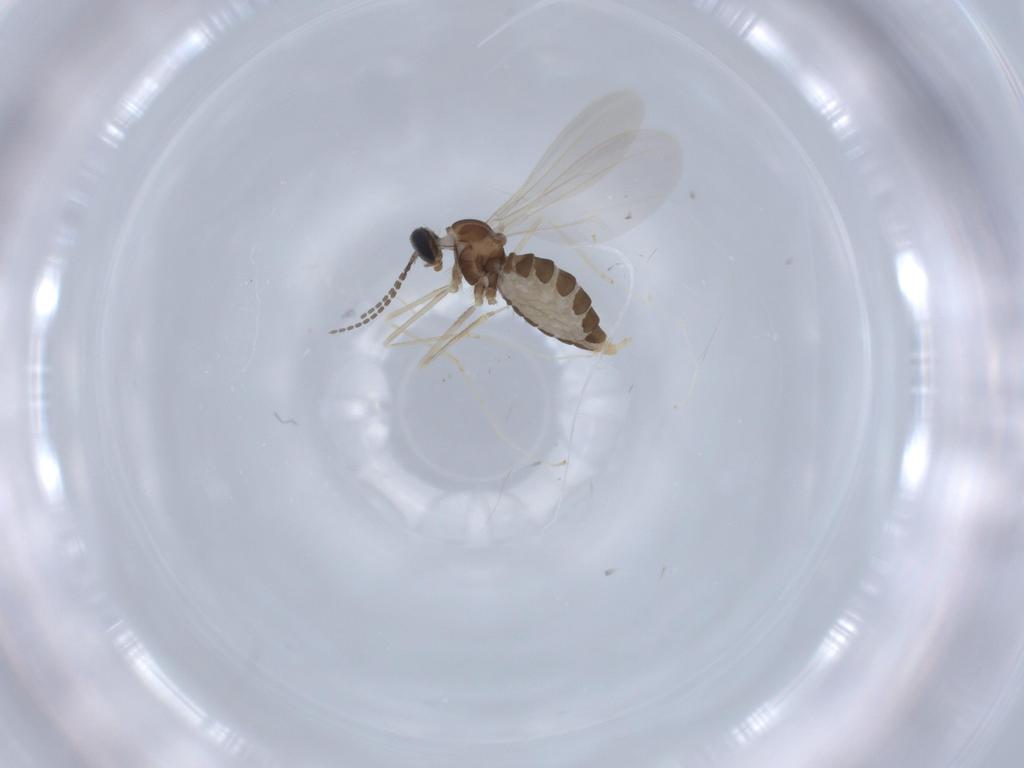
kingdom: Animalia
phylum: Arthropoda
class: Insecta
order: Diptera
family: Cecidomyiidae
